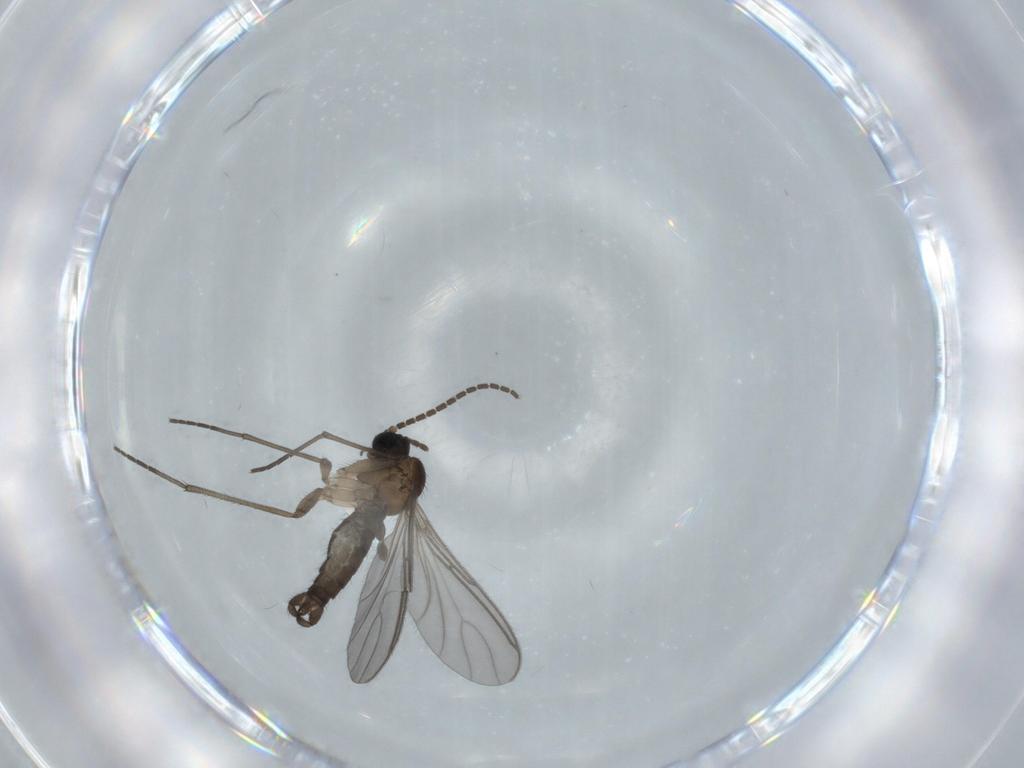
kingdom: Animalia
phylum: Arthropoda
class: Insecta
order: Diptera
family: Sciaridae
